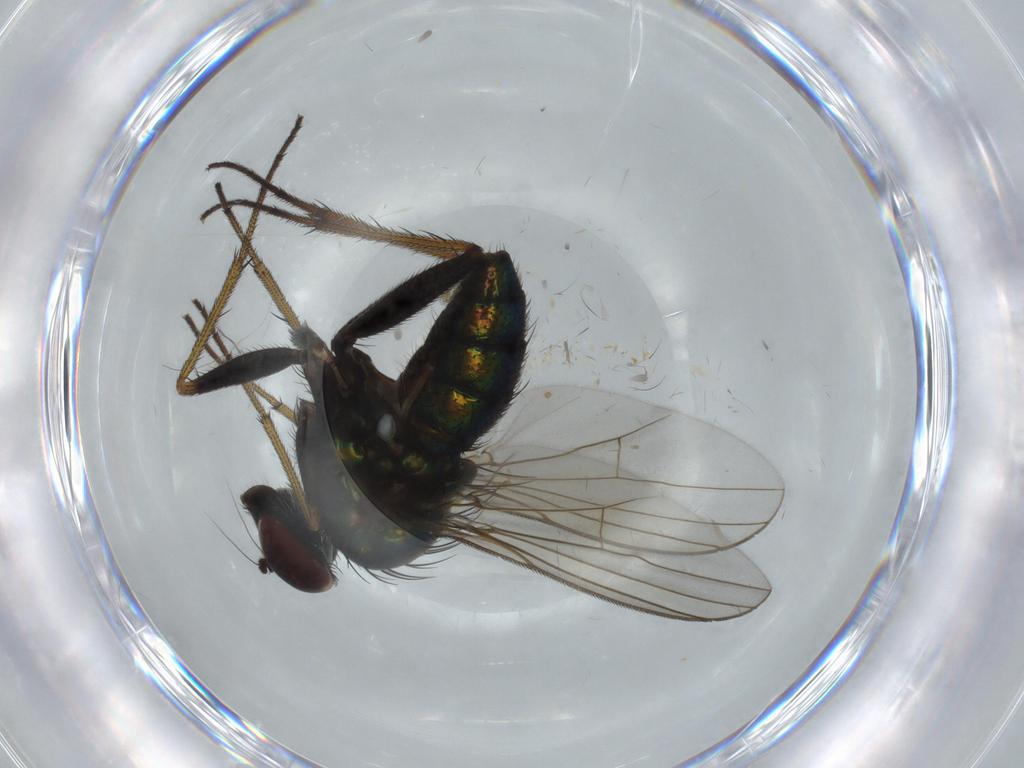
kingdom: Animalia
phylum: Arthropoda
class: Insecta
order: Diptera
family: Dolichopodidae
